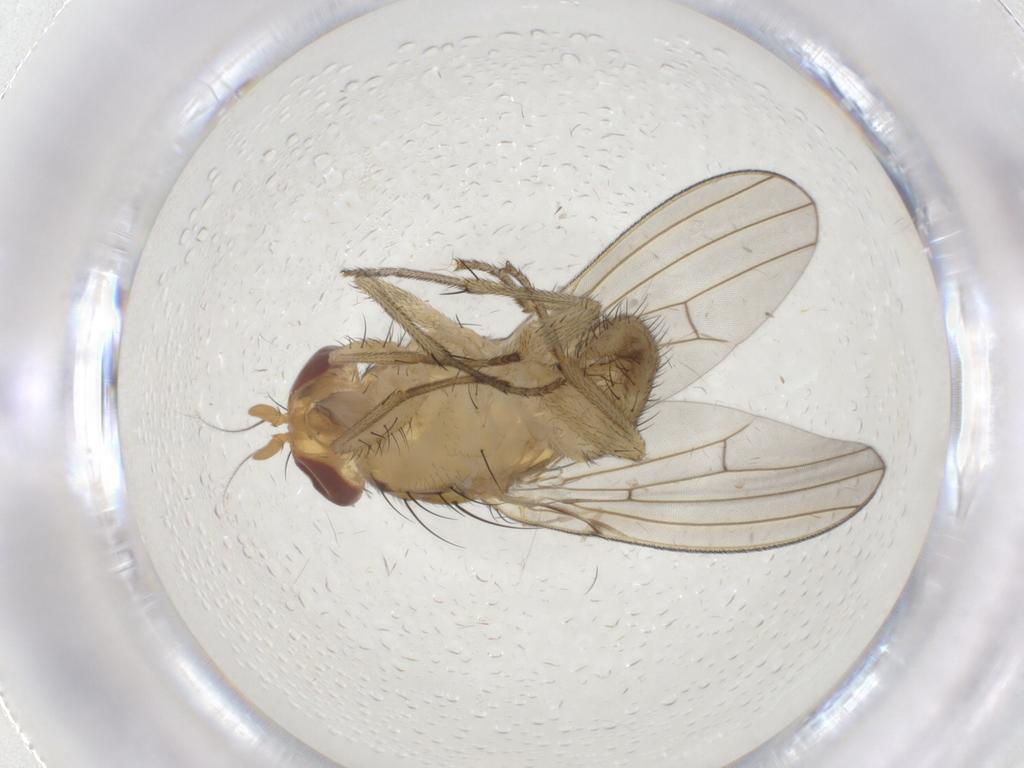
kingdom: Animalia
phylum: Arthropoda
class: Insecta
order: Diptera
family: Lauxaniidae
